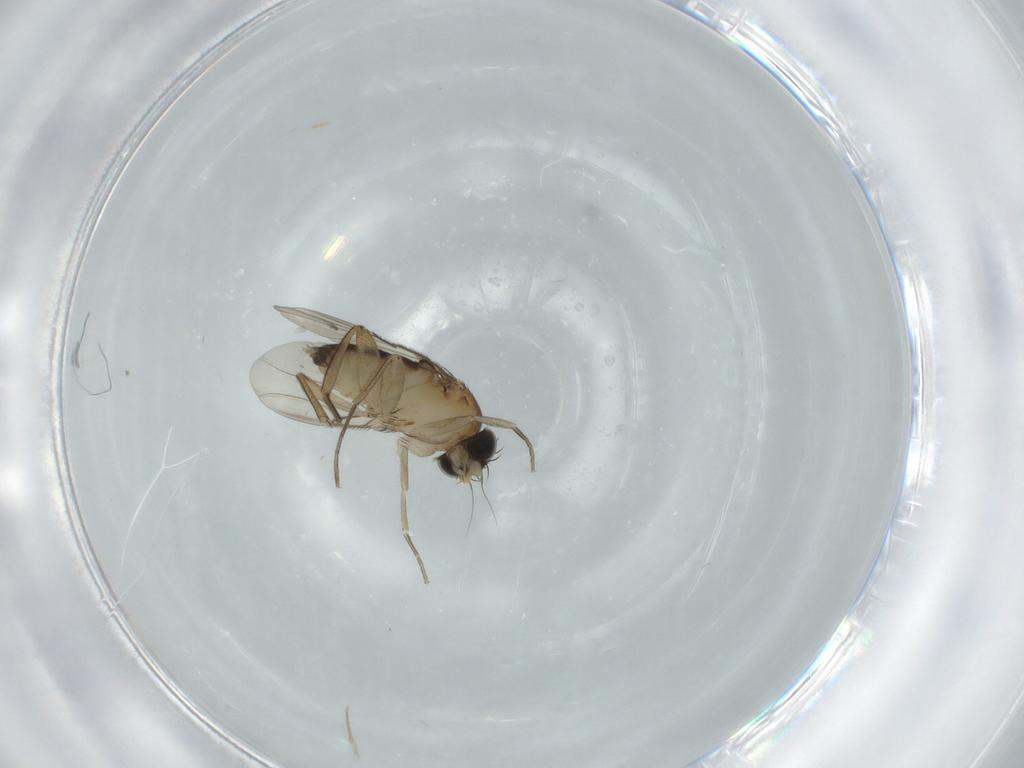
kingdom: Animalia
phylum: Arthropoda
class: Insecta
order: Diptera
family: Phoridae
